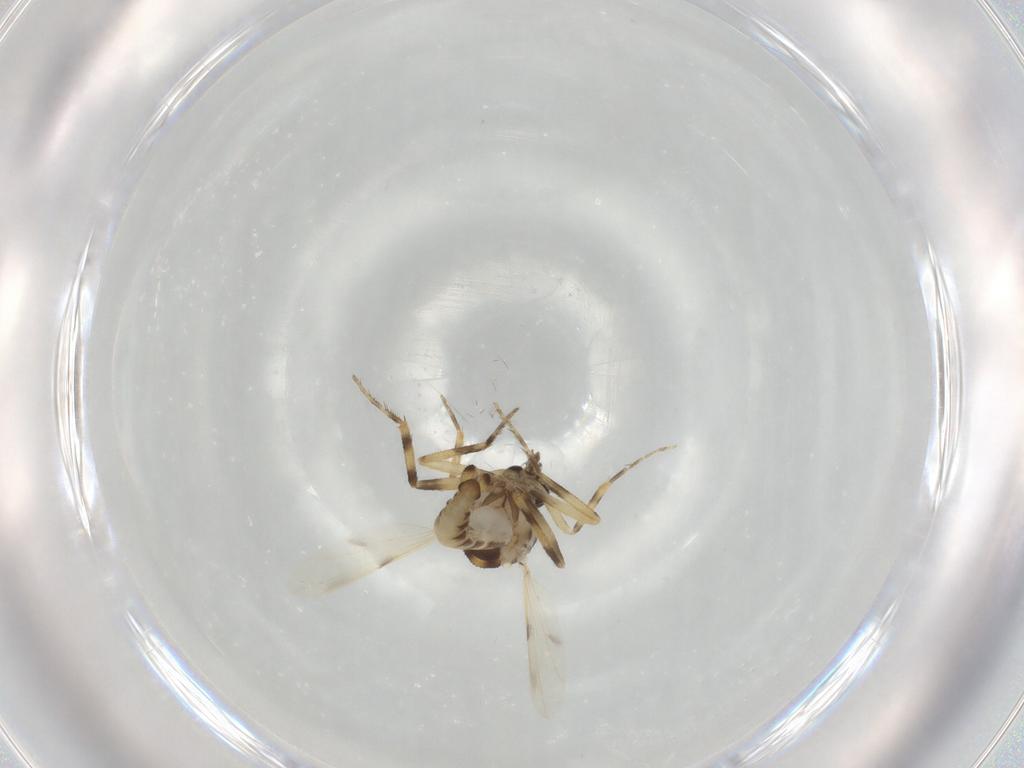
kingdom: Animalia
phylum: Arthropoda
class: Insecta
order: Diptera
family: Ceratopogonidae
